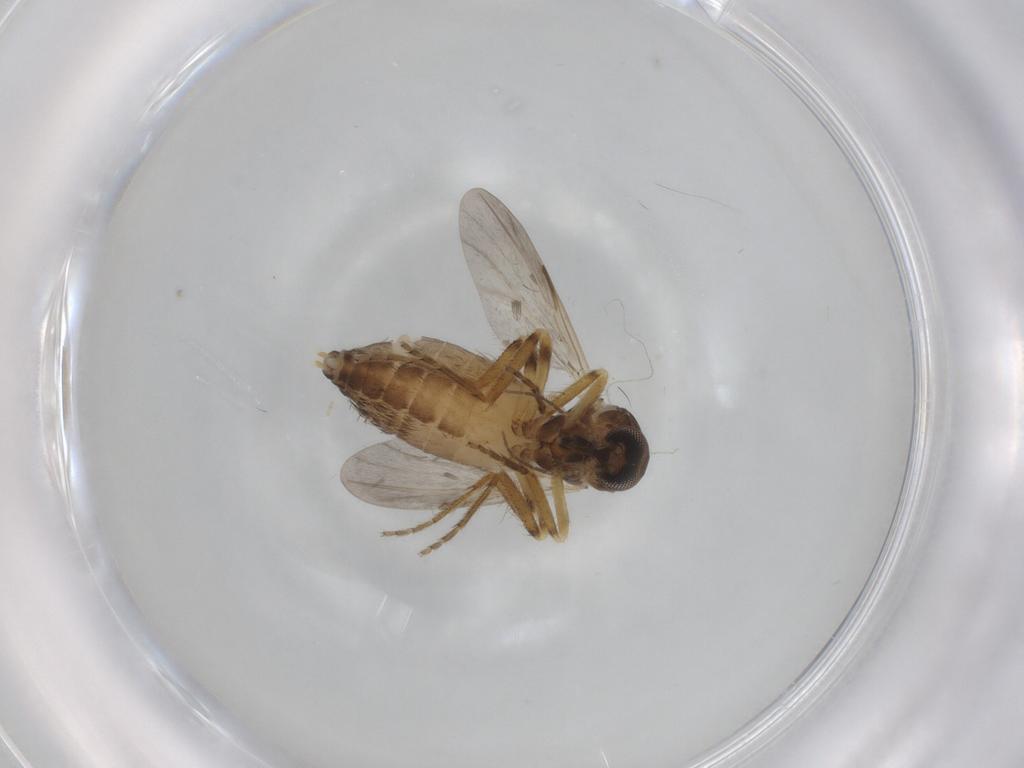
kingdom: Animalia
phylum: Arthropoda
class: Insecta
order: Diptera
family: Ceratopogonidae
